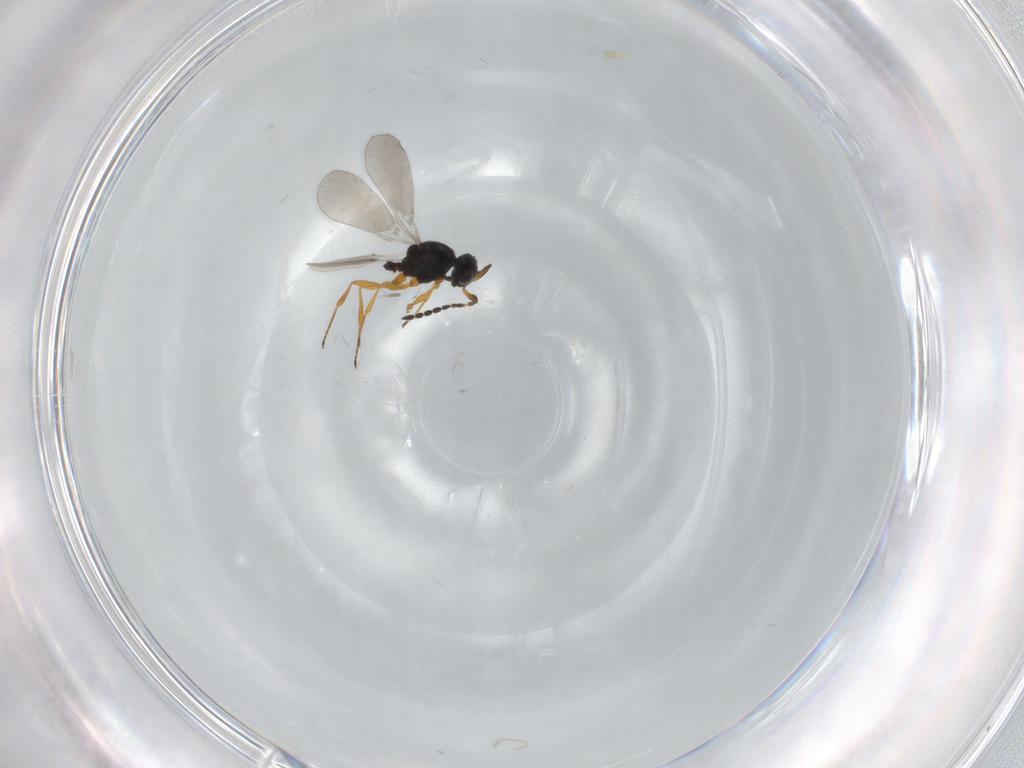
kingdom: Animalia
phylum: Arthropoda
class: Insecta
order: Hymenoptera
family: Platygastridae
